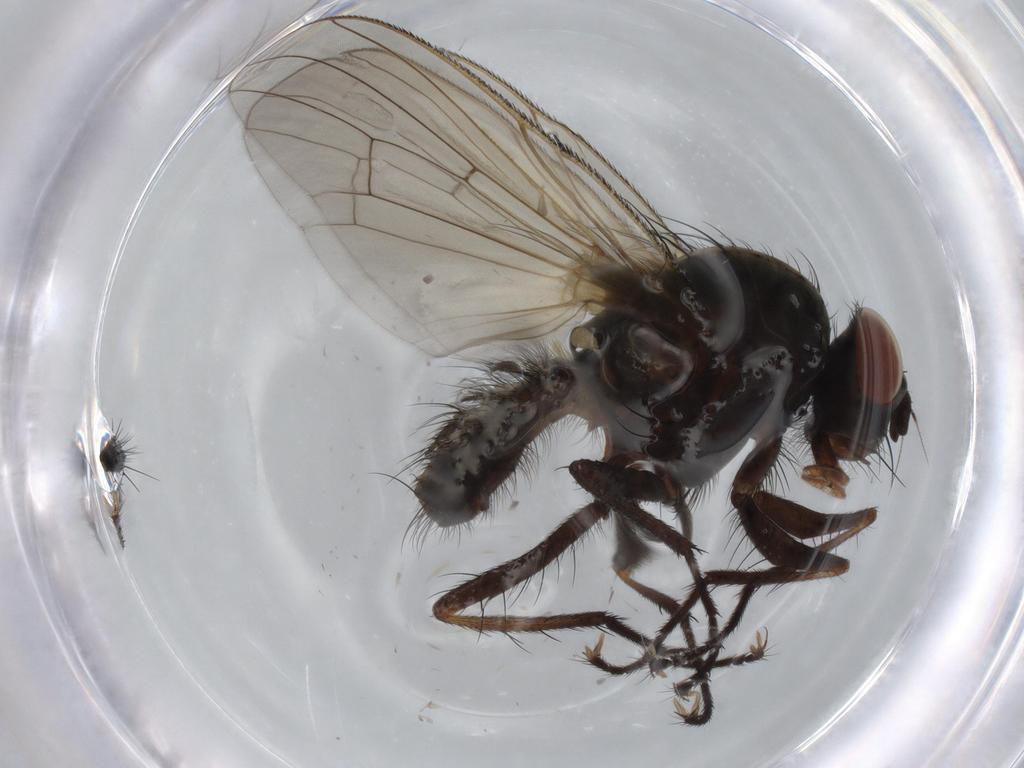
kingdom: Animalia
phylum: Arthropoda
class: Insecta
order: Diptera
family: Anthomyiidae
